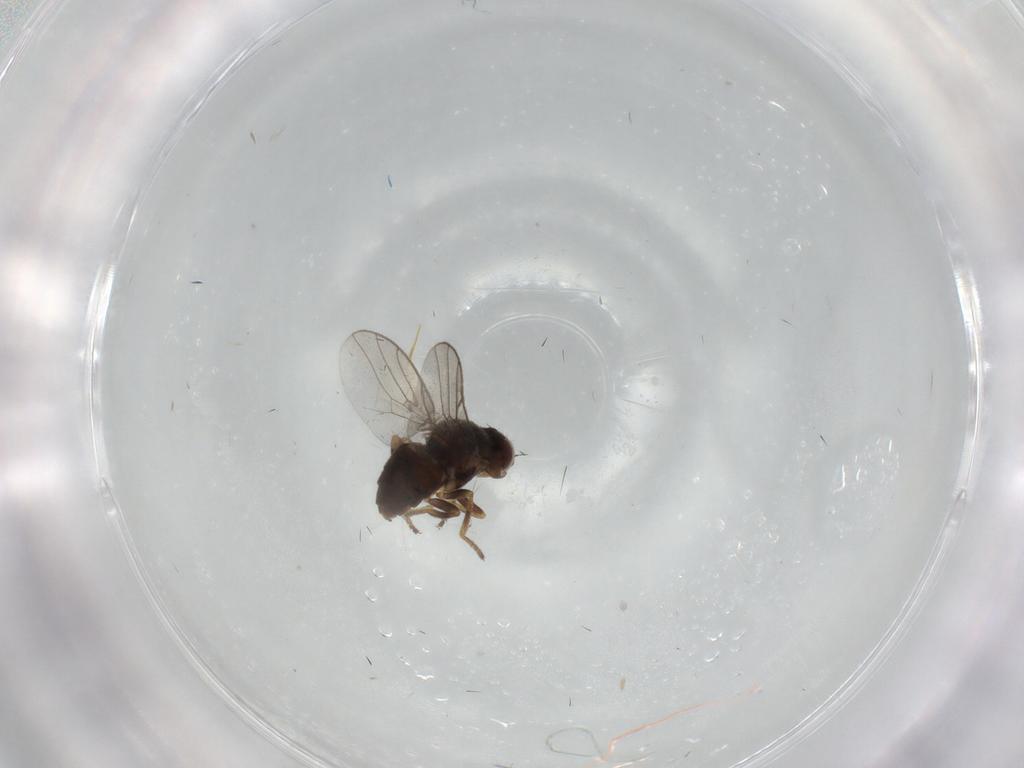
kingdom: Animalia
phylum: Arthropoda
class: Insecta
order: Diptera
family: Chloropidae
